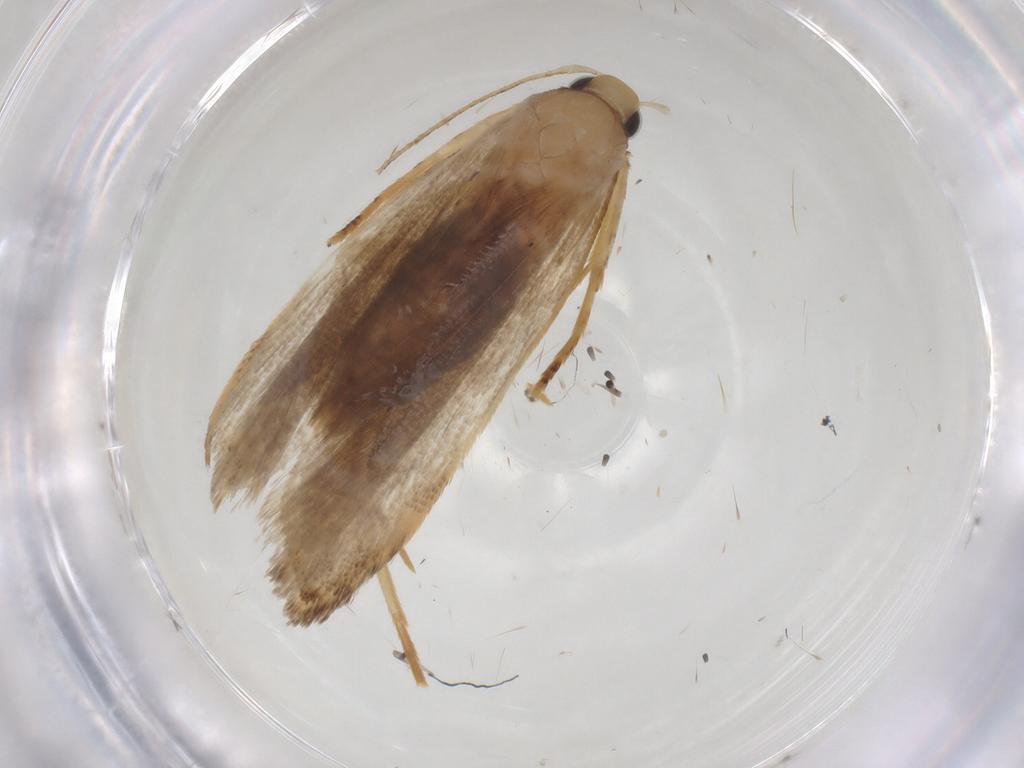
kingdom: Animalia
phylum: Arthropoda
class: Insecta
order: Lepidoptera
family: Gelechiidae
